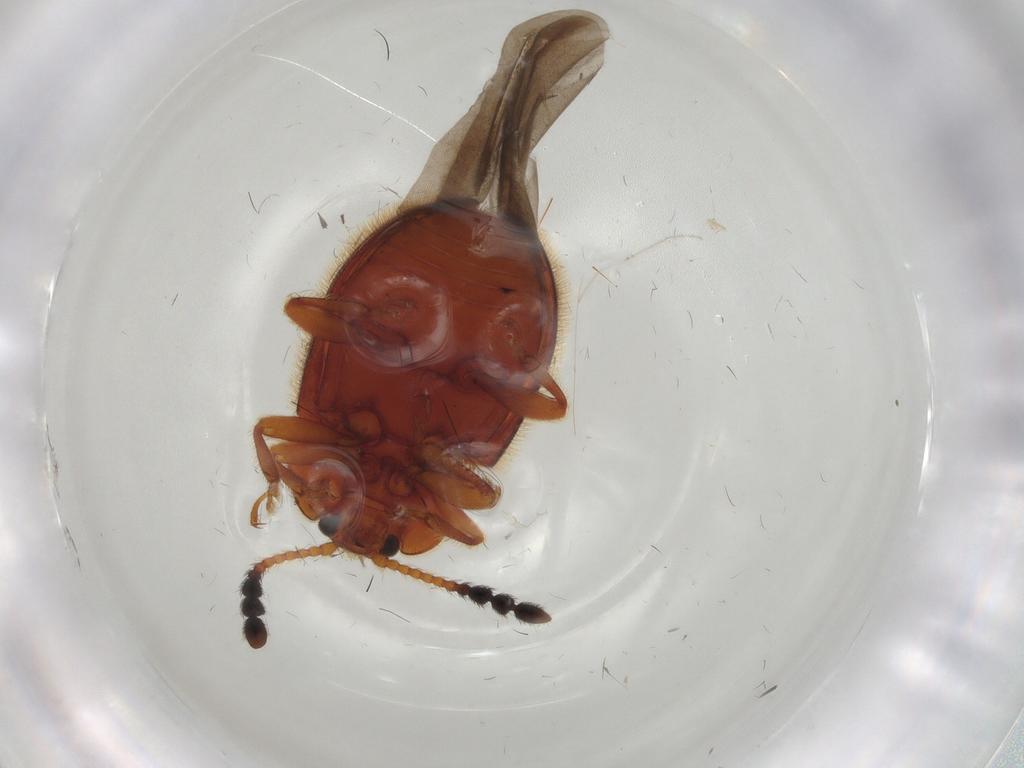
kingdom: Animalia
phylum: Arthropoda
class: Insecta
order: Coleoptera
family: Endomychidae
